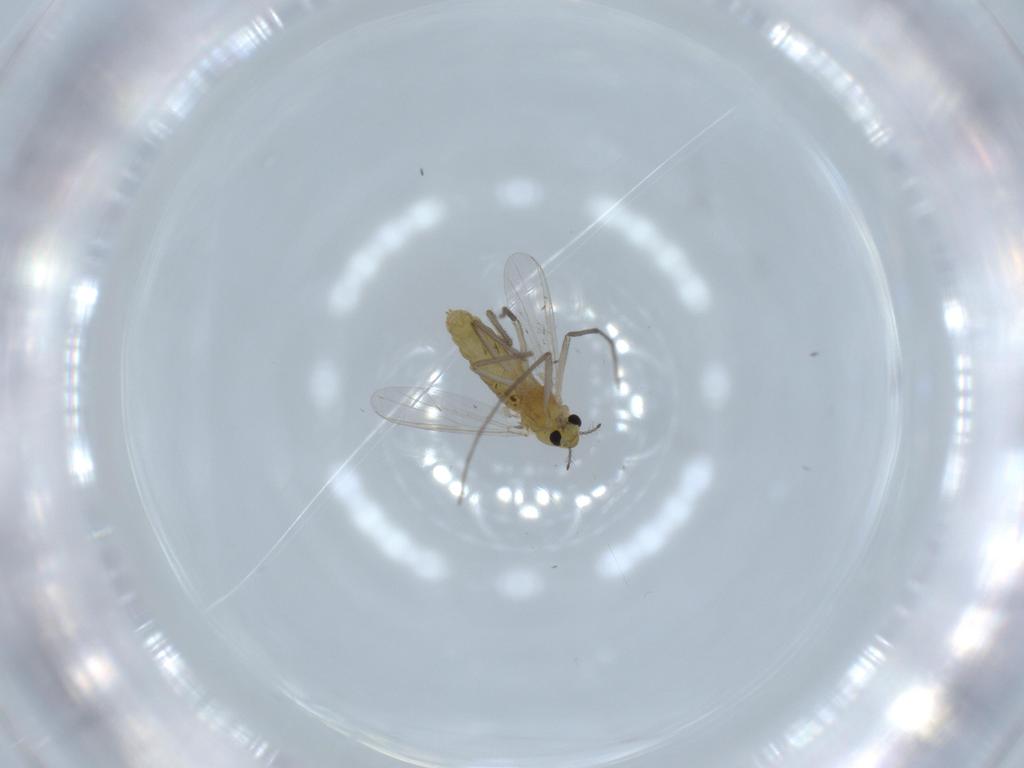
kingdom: Animalia
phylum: Arthropoda
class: Insecta
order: Diptera
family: Chironomidae
